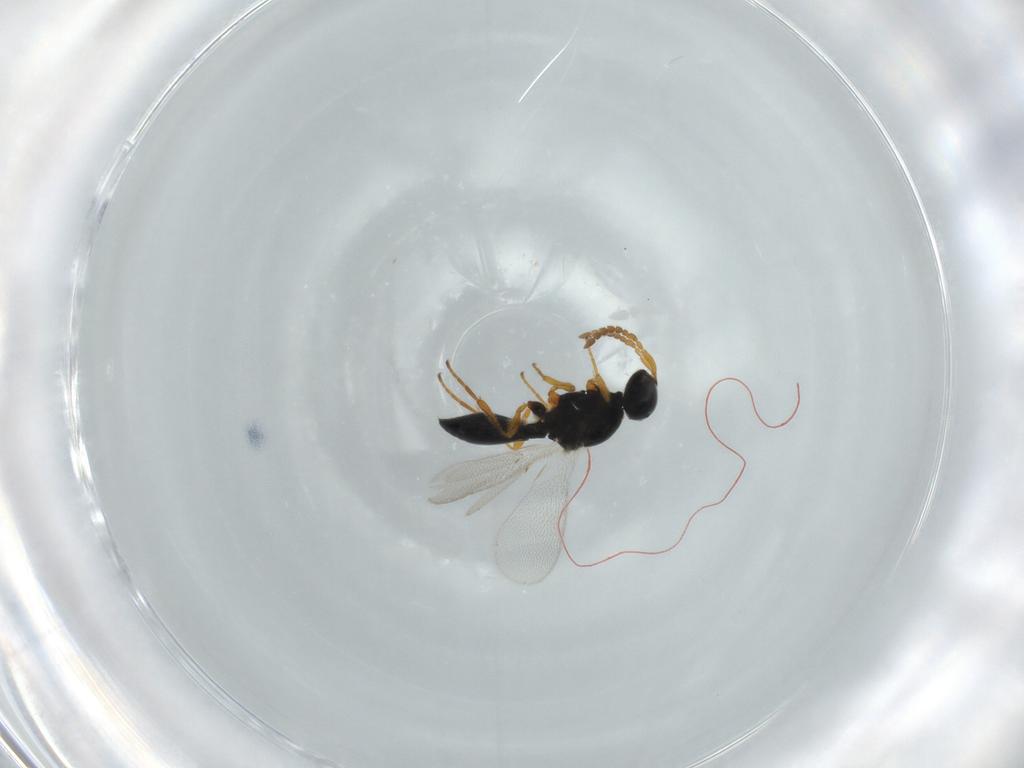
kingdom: Animalia
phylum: Arthropoda
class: Insecta
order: Hymenoptera
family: Platygastridae
